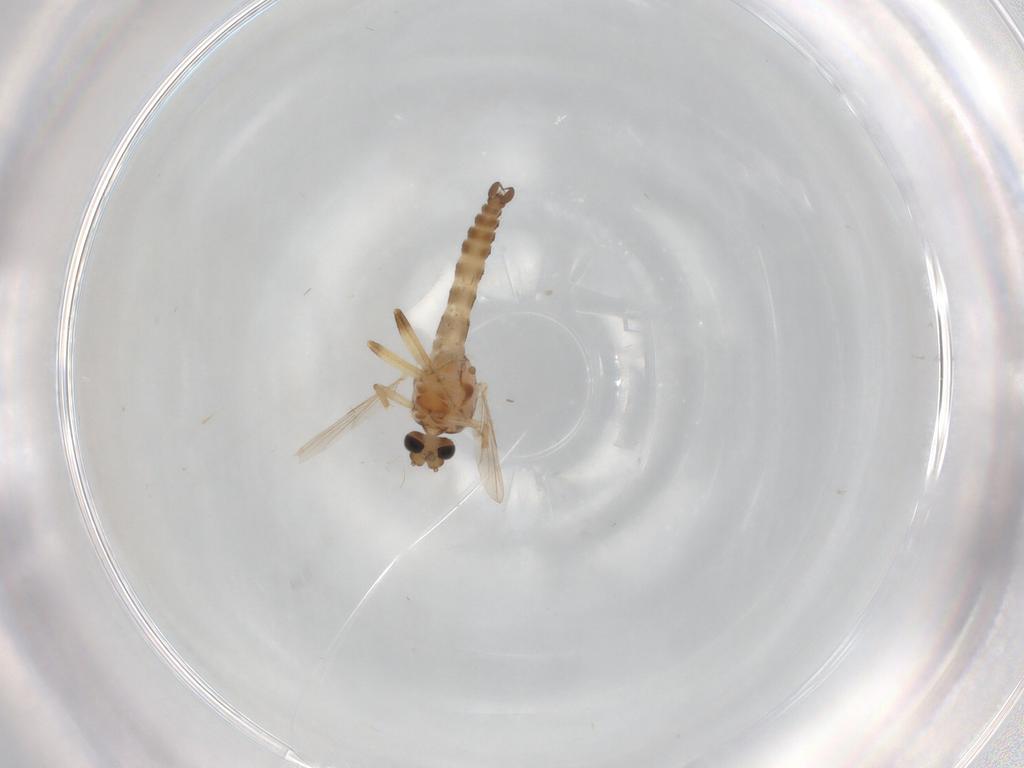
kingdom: Animalia
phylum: Arthropoda
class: Insecta
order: Diptera
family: Ceratopogonidae
